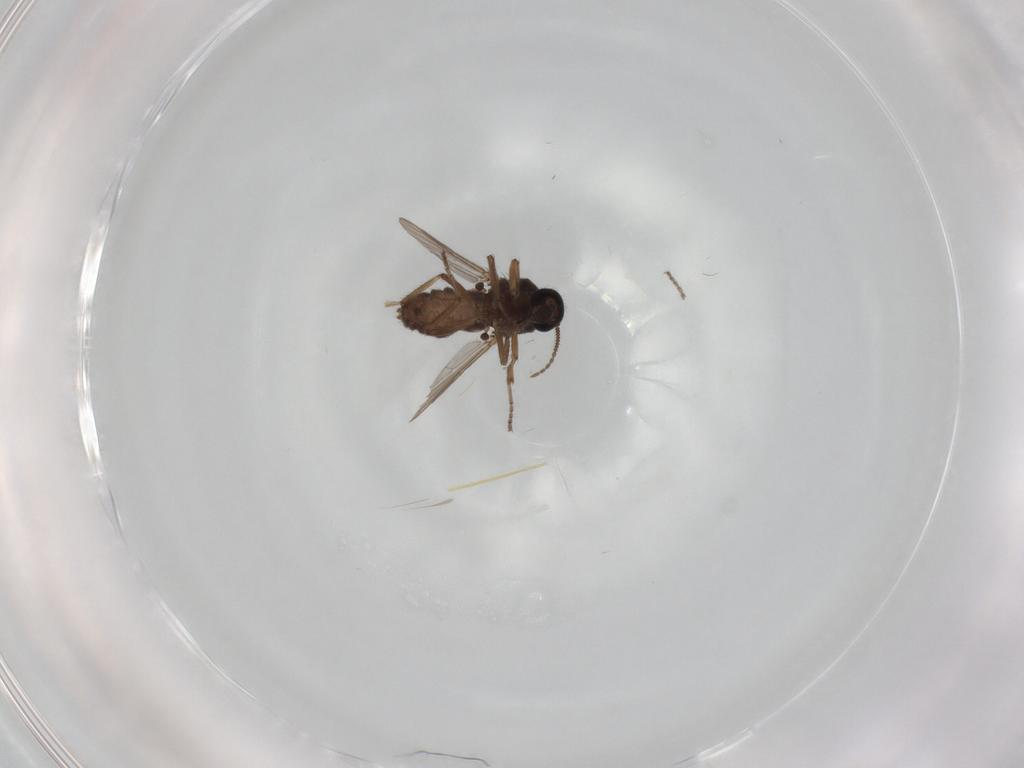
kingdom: Animalia
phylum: Arthropoda
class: Insecta
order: Diptera
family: Ceratopogonidae
